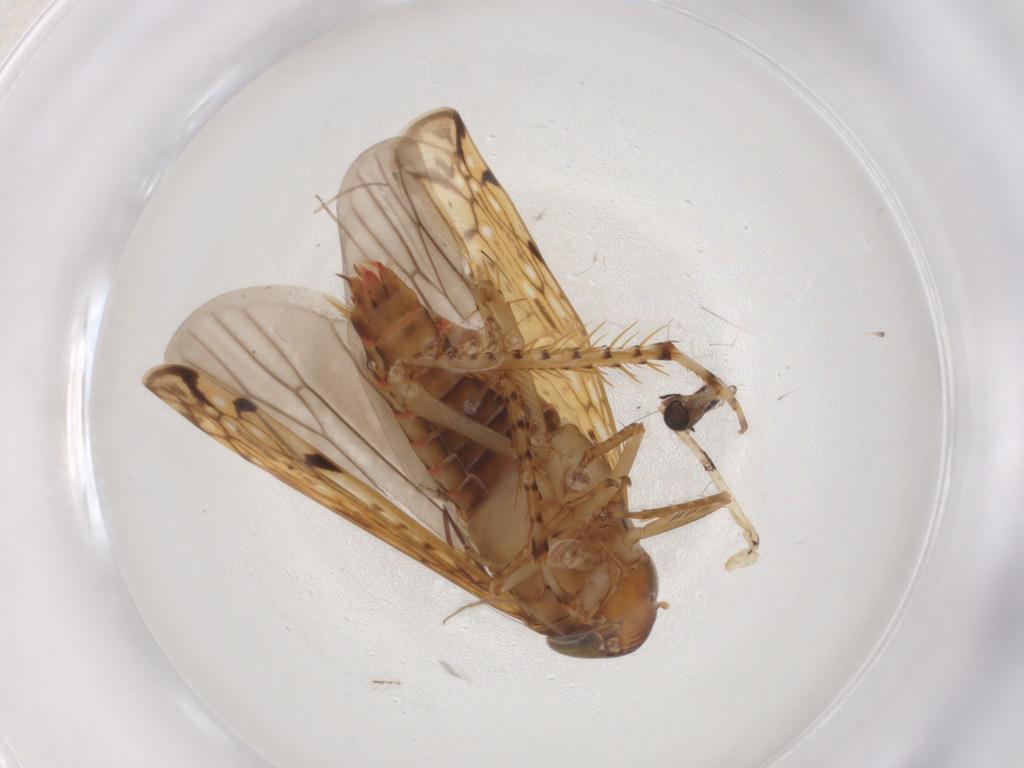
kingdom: Animalia
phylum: Arthropoda
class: Insecta
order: Hemiptera
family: Cicadellidae
